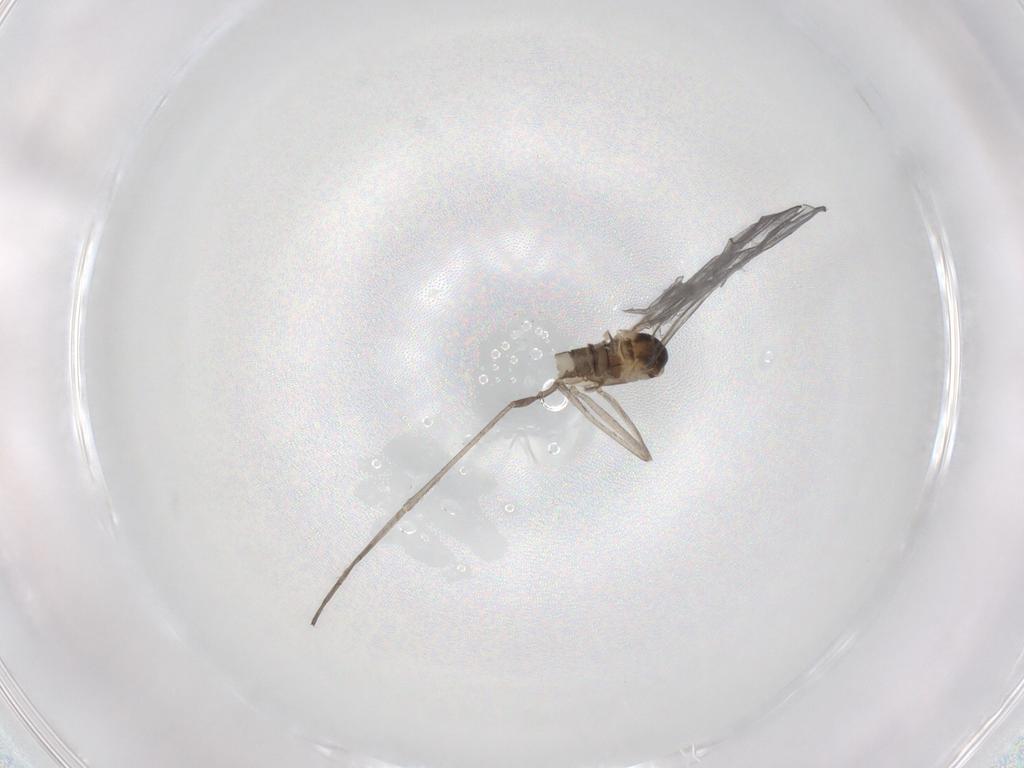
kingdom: Animalia
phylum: Arthropoda
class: Insecta
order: Diptera
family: Cecidomyiidae
